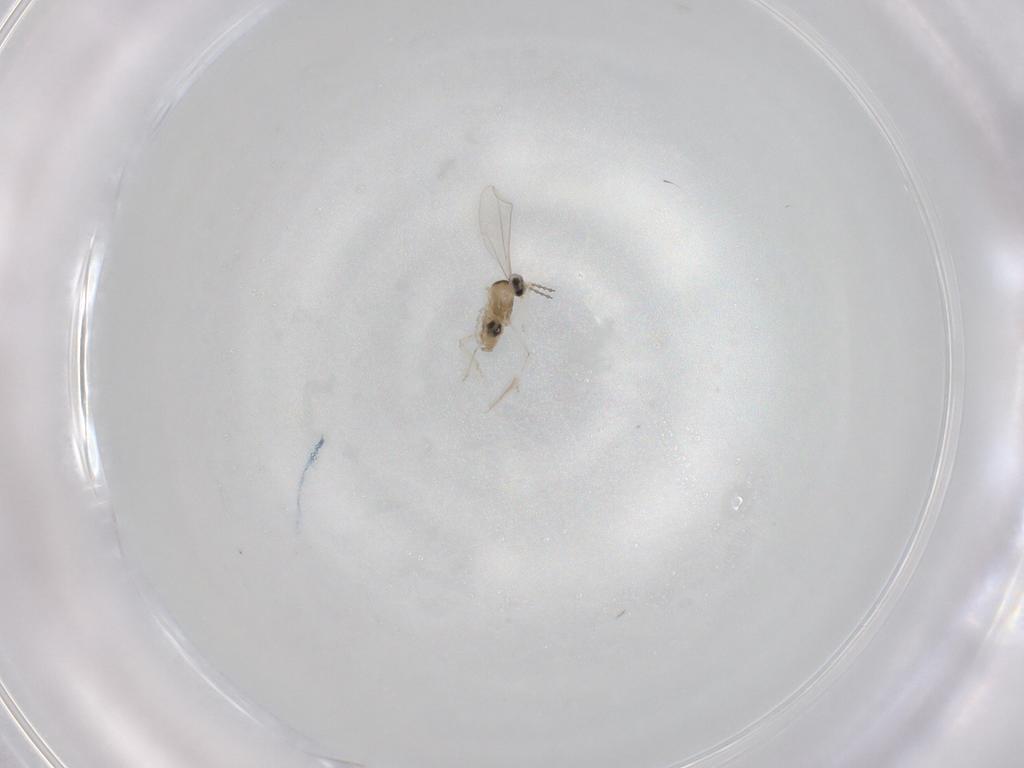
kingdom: Animalia
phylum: Arthropoda
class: Insecta
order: Diptera
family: Cecidomyiidae
